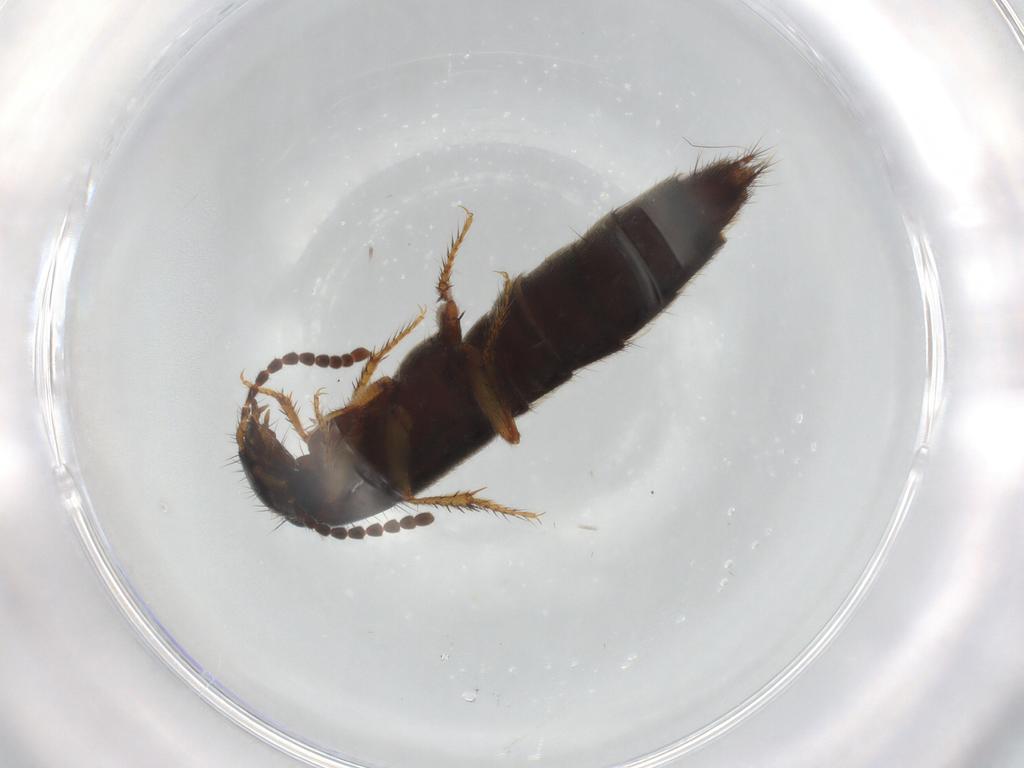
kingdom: Animalia
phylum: Arthropoda
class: Insecta
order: Coleoptera
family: Staphylinidae
